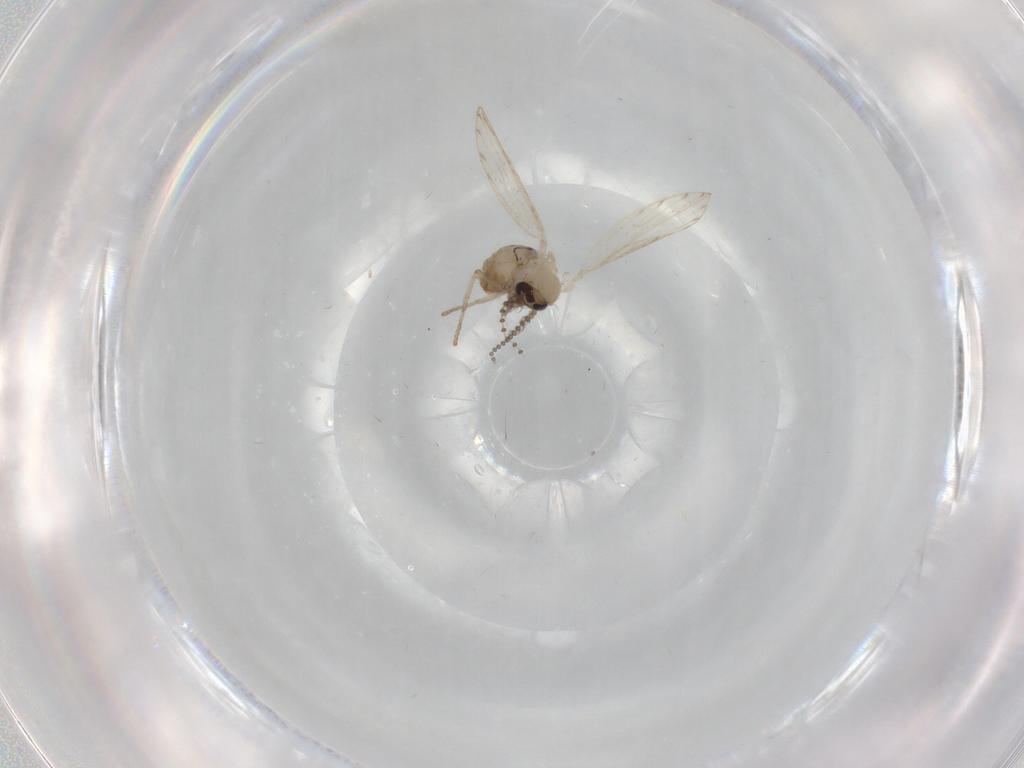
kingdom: Animalia
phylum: Arthropoda
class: Insecta
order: Diptera
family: Psychodidae
